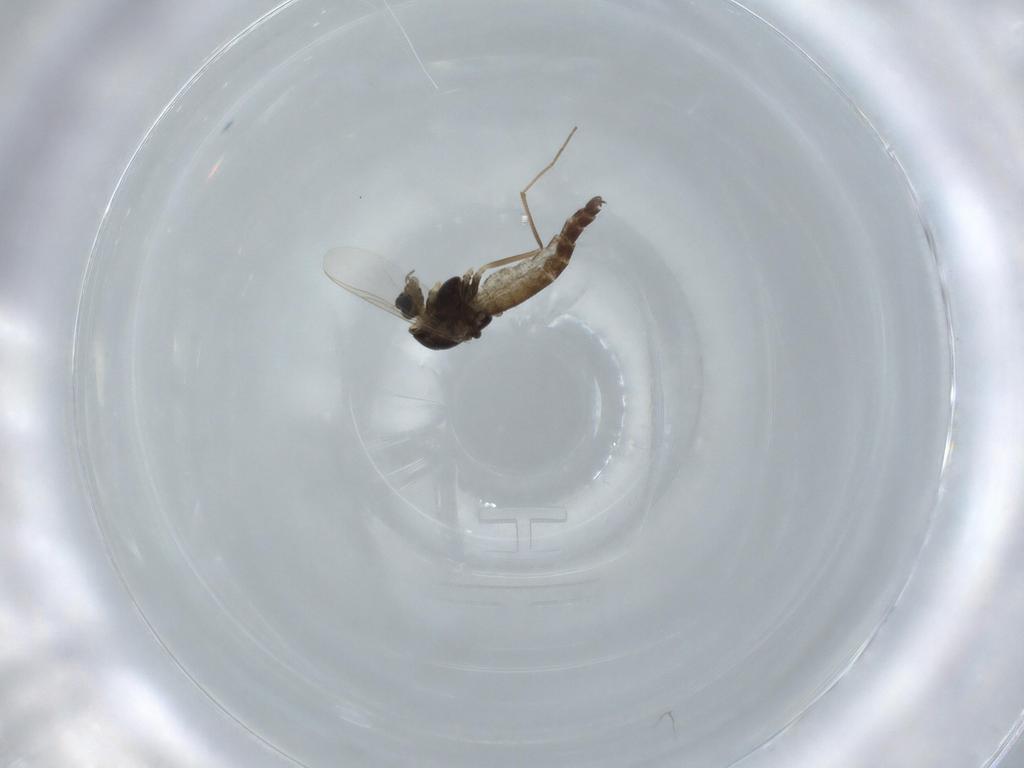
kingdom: Animalia
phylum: Arthropoda
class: Insecta
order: Diptera
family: Chironomidae
